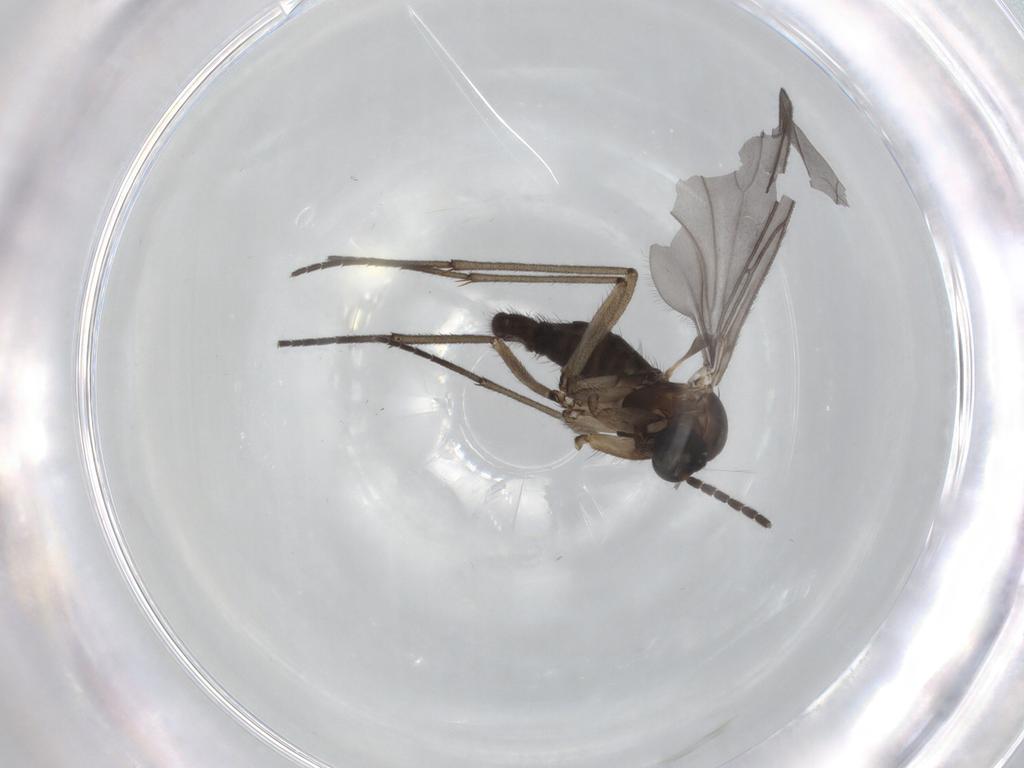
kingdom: Animalia
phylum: Arthropoda
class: Insecta
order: Diptera
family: Sciaridae
